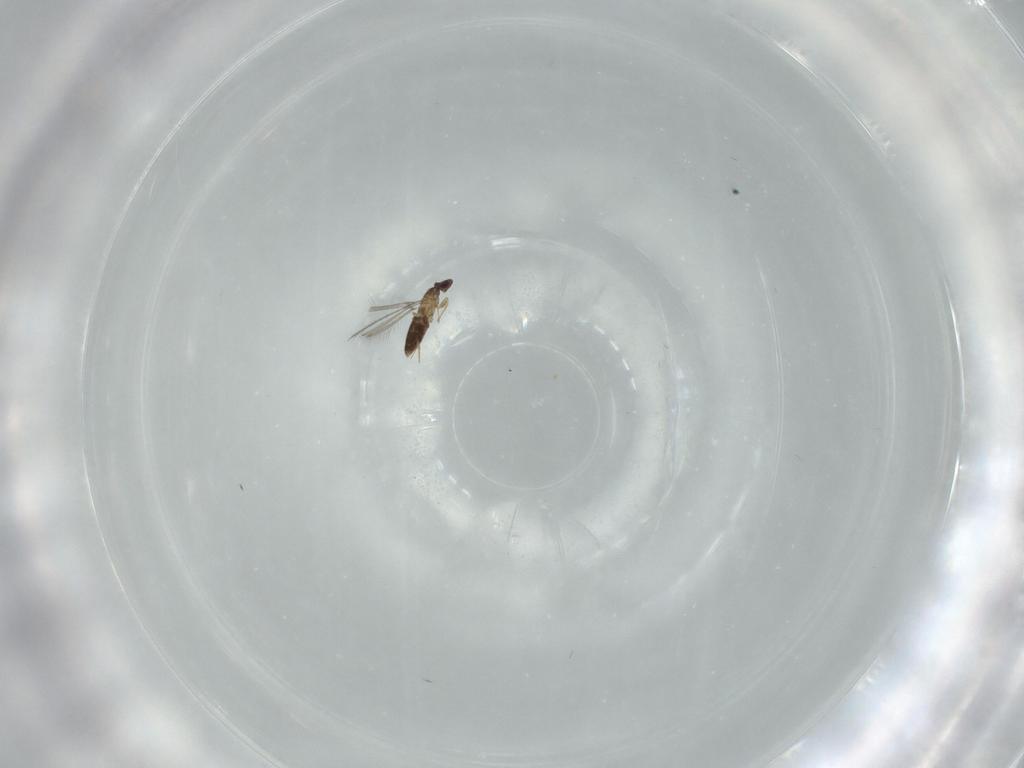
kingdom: Animalia
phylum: Arthropoda
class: Insecta
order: Hymenoptera
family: Mymaridae
